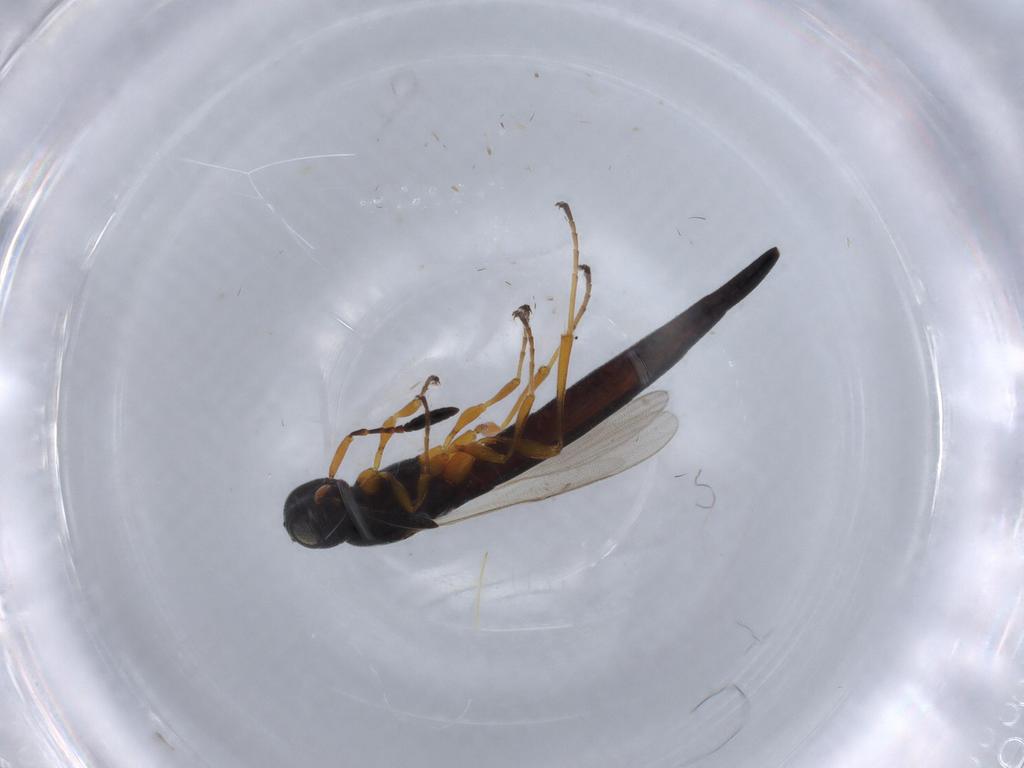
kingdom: Animalia
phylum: Arthropoda
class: Insecta
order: Hymenoptera
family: Scelionidae
